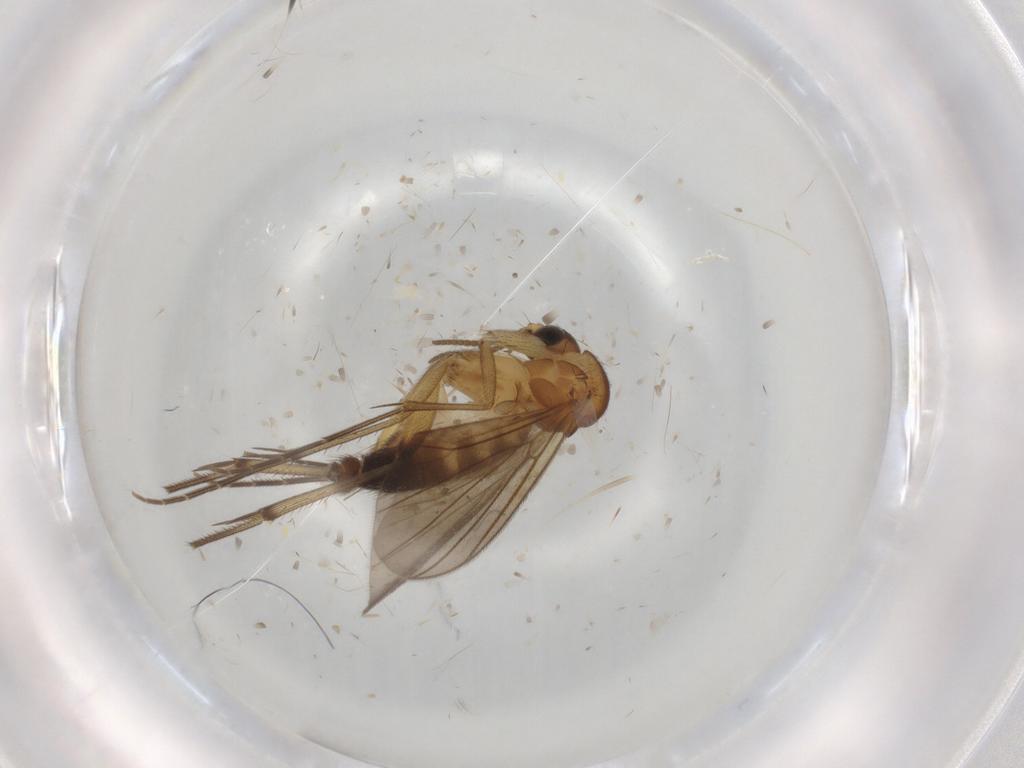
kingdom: Animalia
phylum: Arthropoda
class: Insecta
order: Diptera
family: Mycetophilidae
